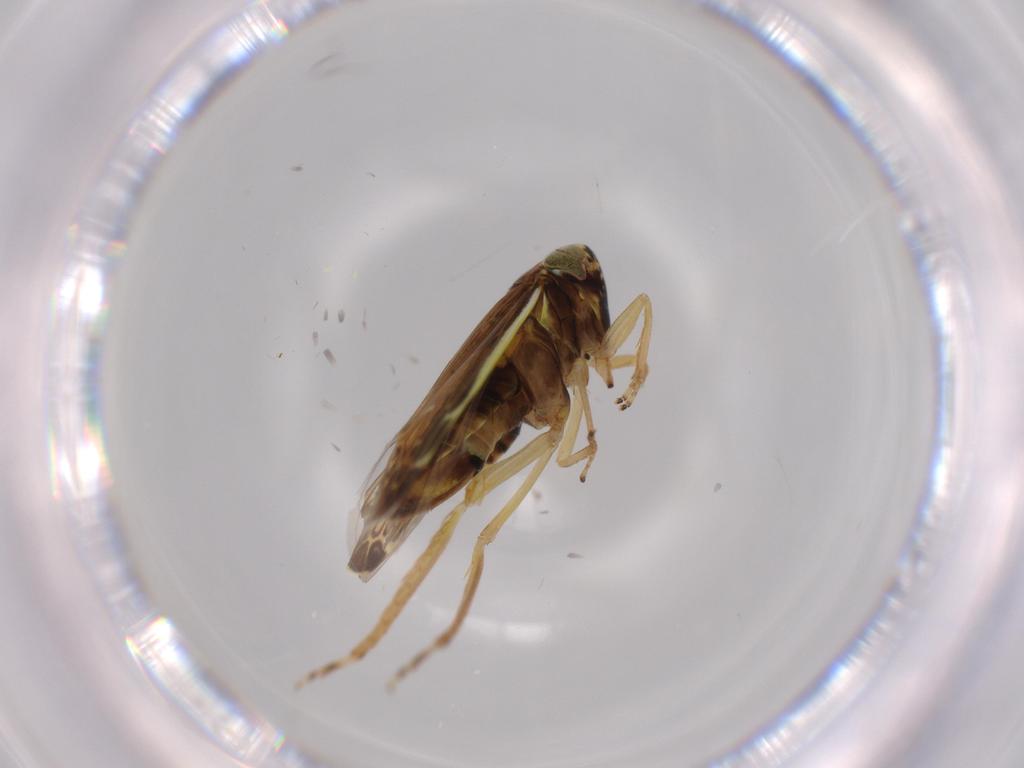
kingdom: Animalia
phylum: Arthropoda
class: Insecta
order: Hemiptera
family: Cicadellidae
